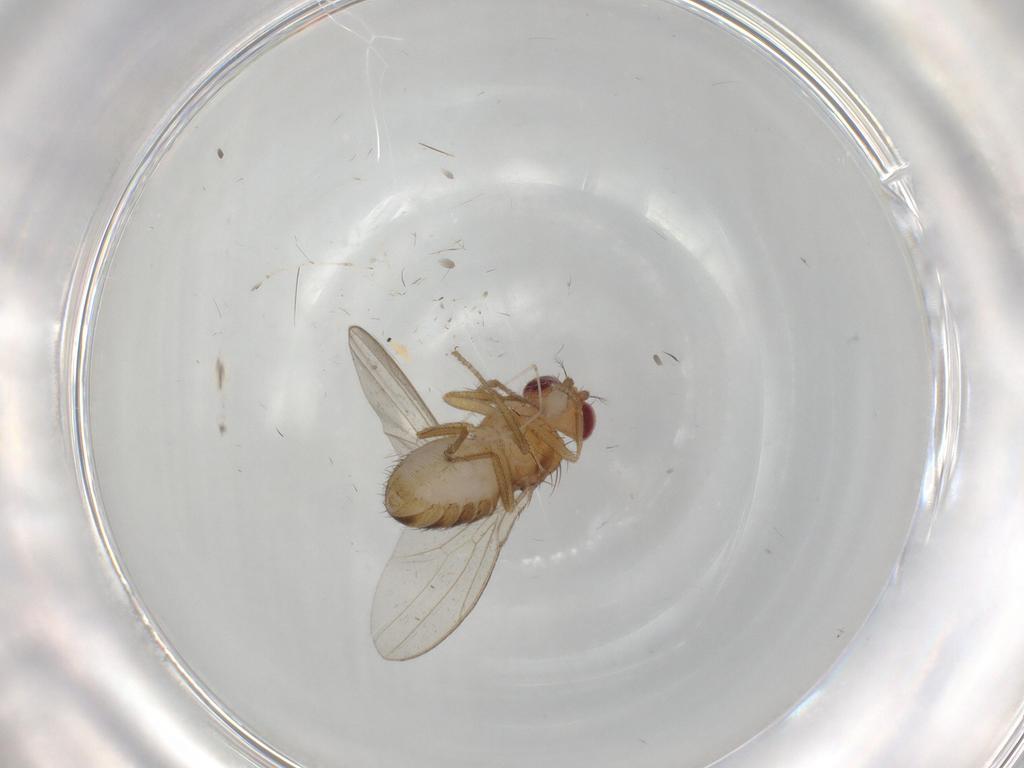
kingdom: Animalia
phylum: Arthropoda
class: Insecta
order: Diptera
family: Drosophilidae
